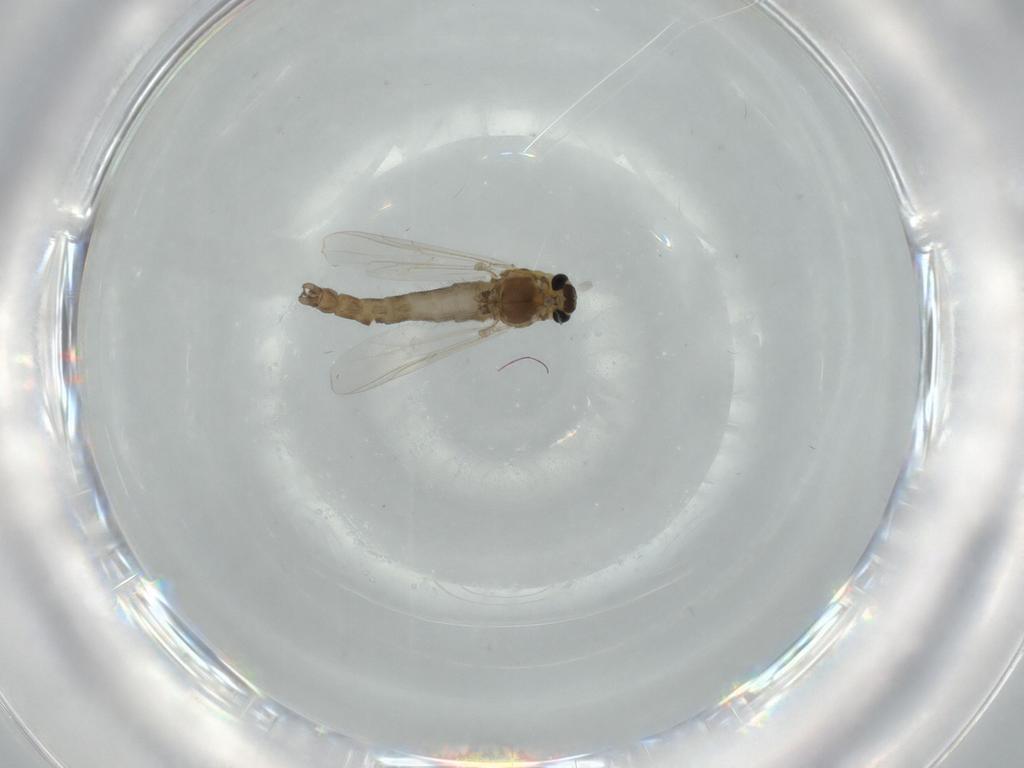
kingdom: Animalia
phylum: Arthropoda
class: Insecta
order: Diptera
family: Chironomidae
